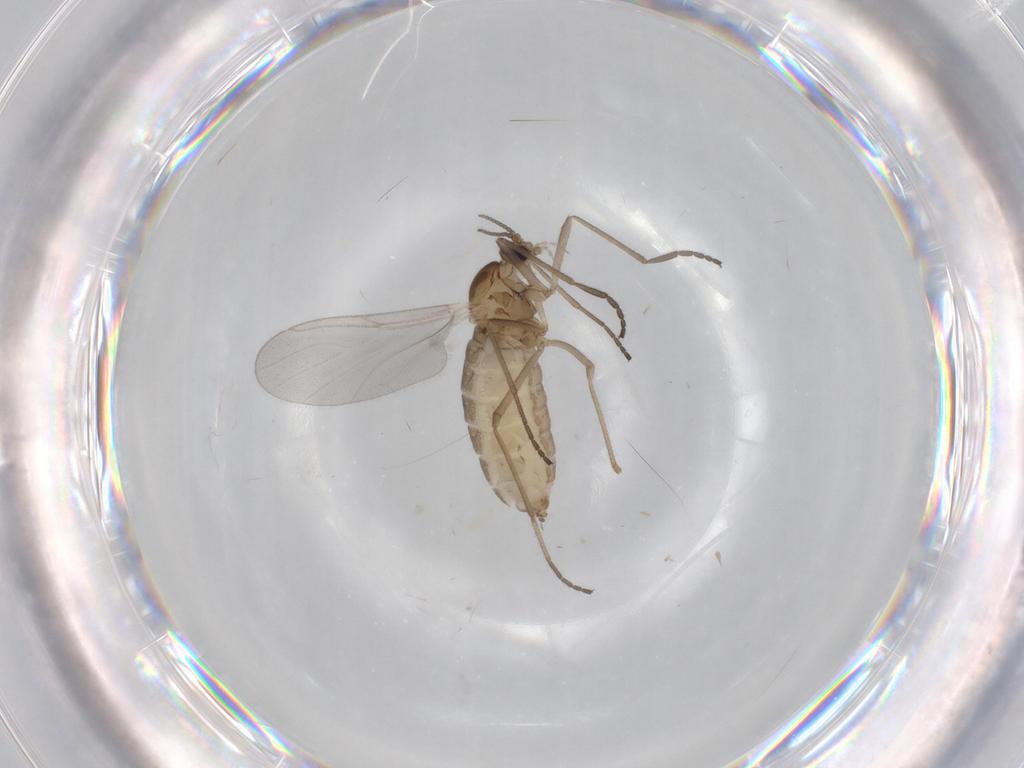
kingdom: Animalia
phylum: Arthropoda
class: Insecta
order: Diptera
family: Cecidomyiidae
